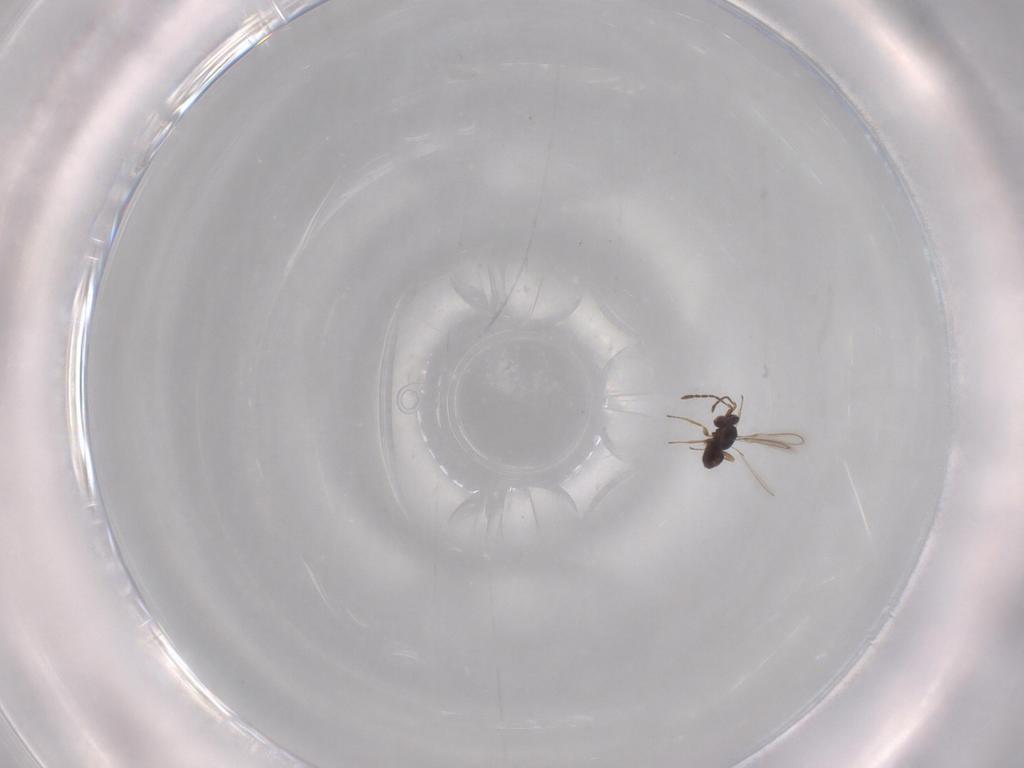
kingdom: Animalia
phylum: Arthropoda
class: Insecta
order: Hymenoptera
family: Mymaridae
